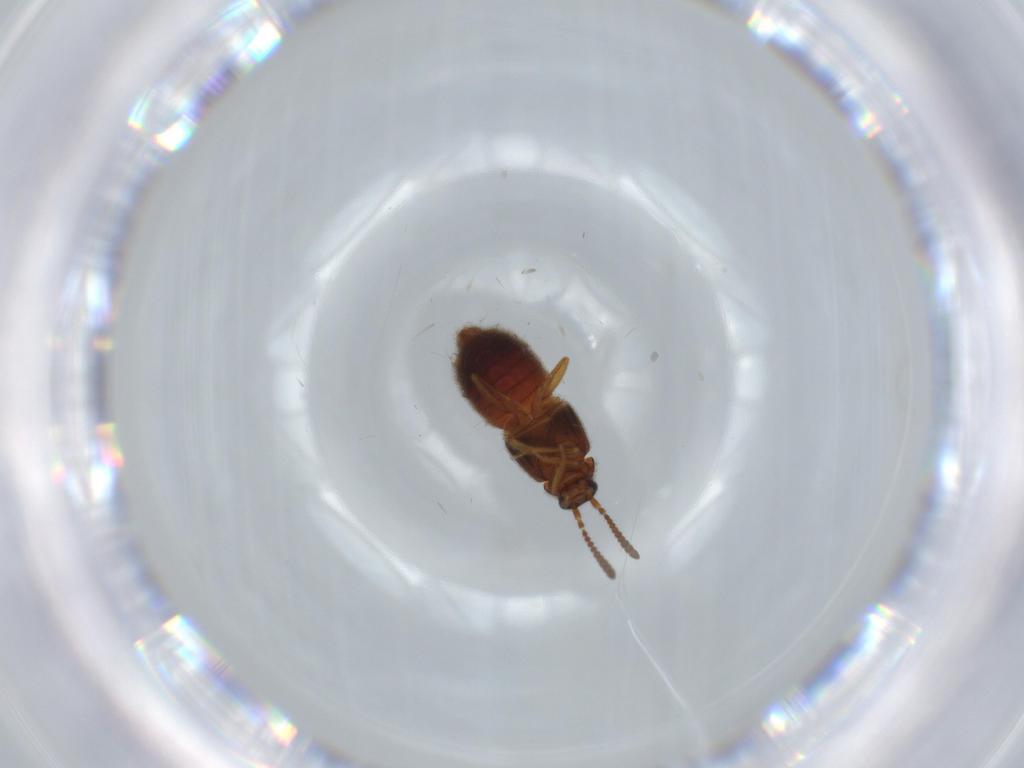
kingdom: Animalia
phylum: Arthropoda
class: Insecta
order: Coleoptera
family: Staphylinidae
